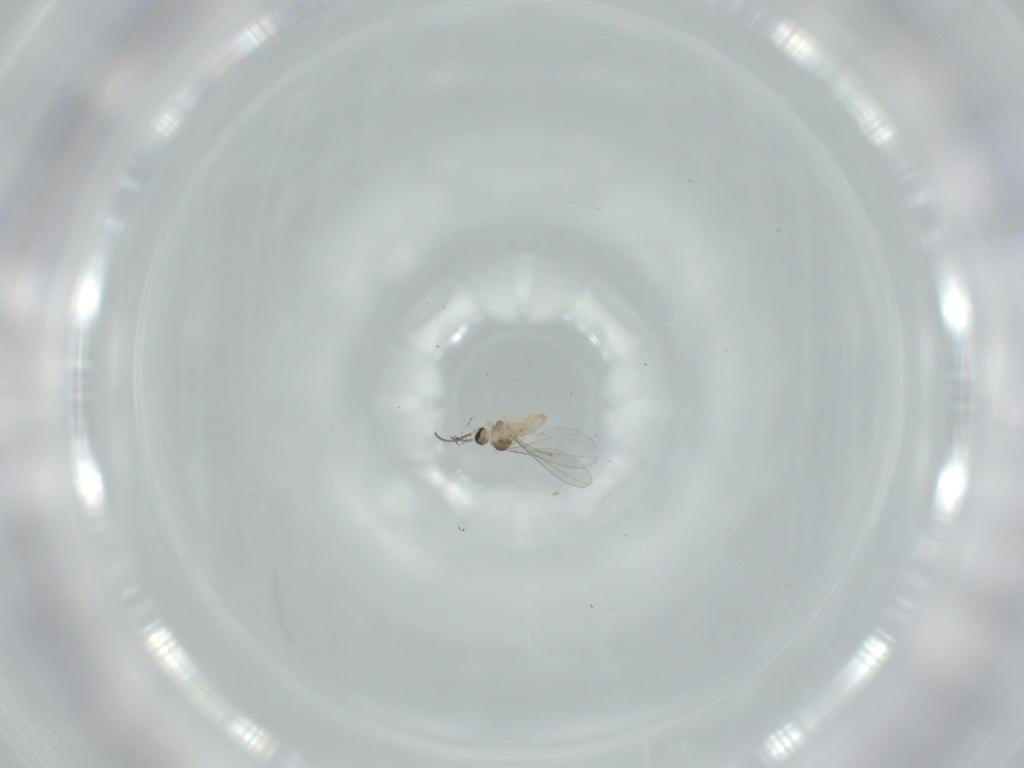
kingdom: Animalia
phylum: Arthropoda
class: Insecta
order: Diptera
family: Cecidomyiidae
